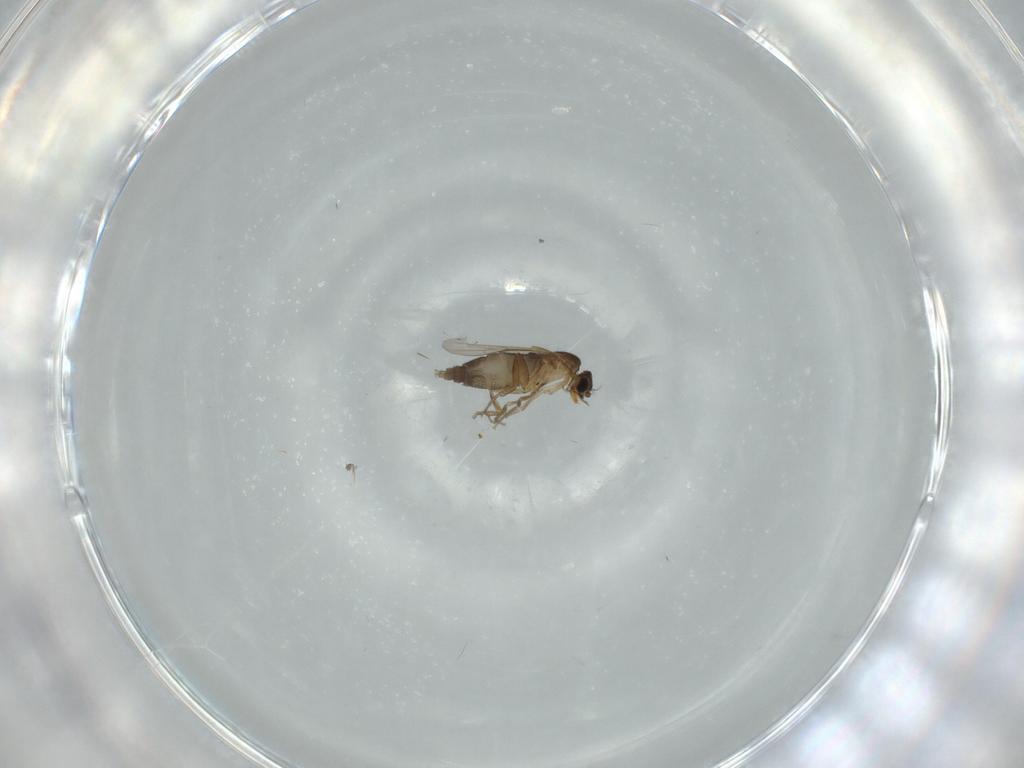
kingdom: Animalia
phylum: Arthropoda
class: Insecta
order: Diptera
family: Phoridae
